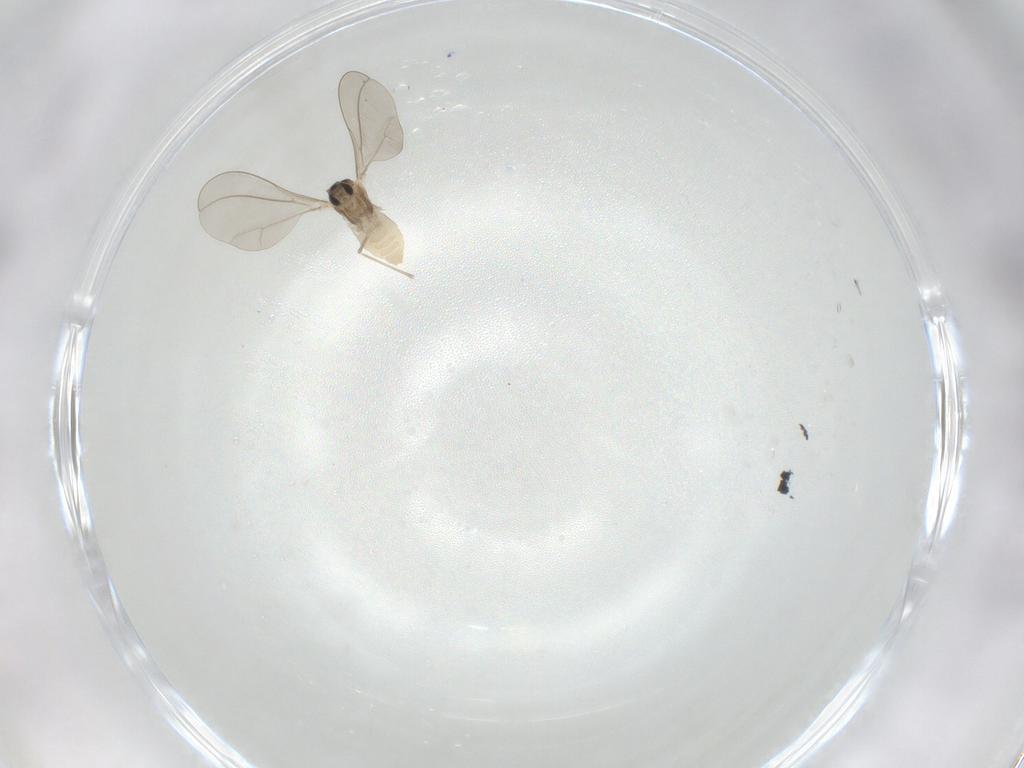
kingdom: Animalia
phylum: Arthropoda
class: Insecta
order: Diptera
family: Cecidomyiidae
